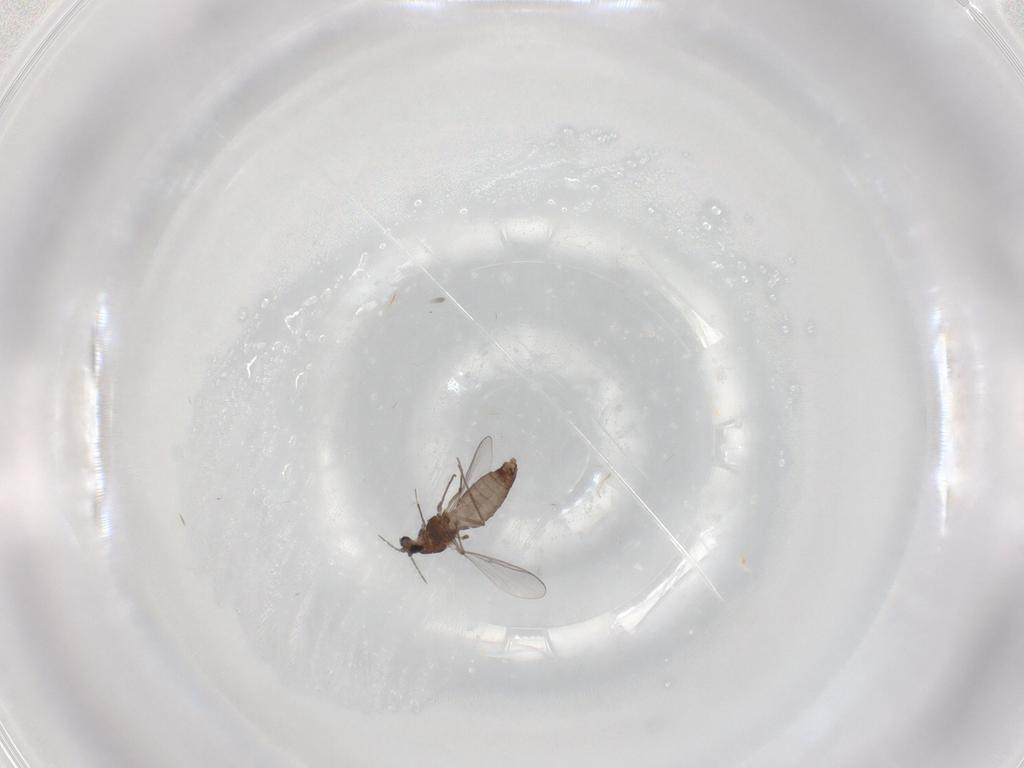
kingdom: Animalia
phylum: Arthropoda
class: Insecta
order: Diptera
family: Chironomidae
